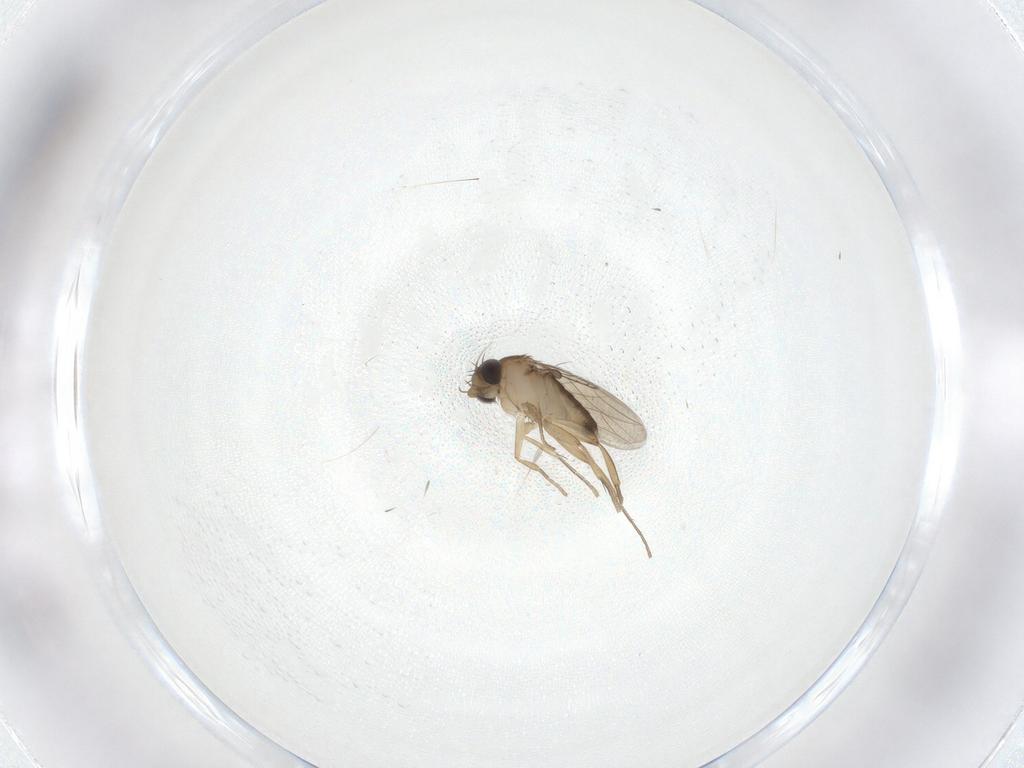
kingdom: Animalia
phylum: Arthropoda
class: Insecta
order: Diptera
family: Phoridae
